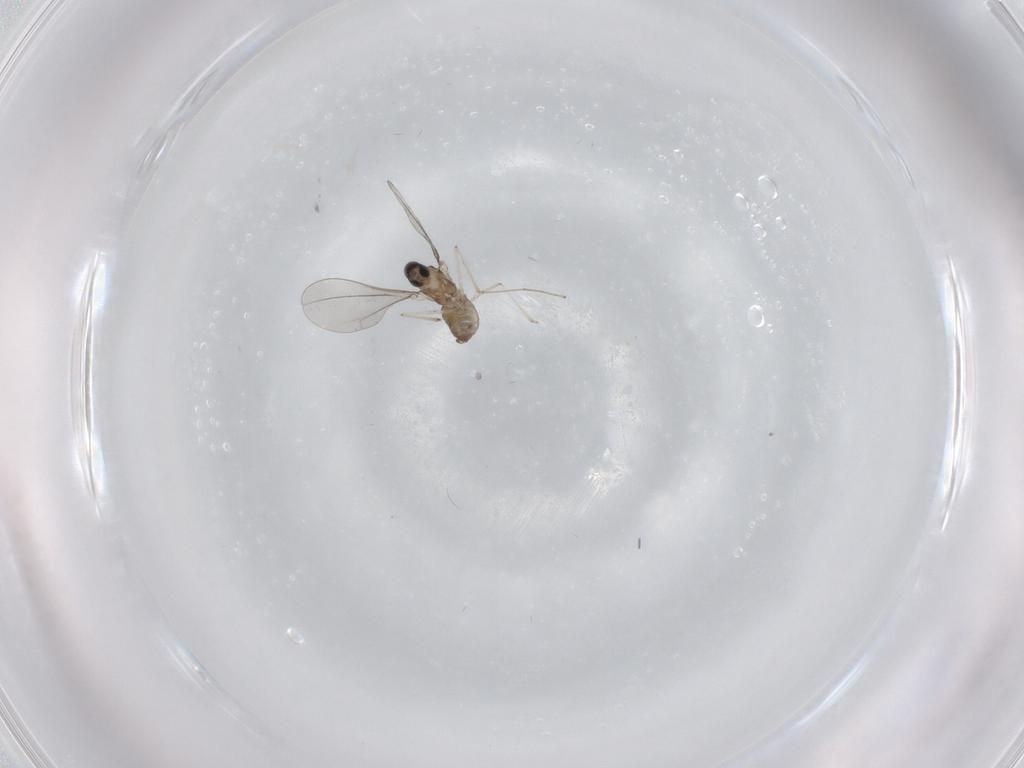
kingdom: Animalia
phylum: Arthropoda
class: Insecta
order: Diptera
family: Cecidomyiidae
